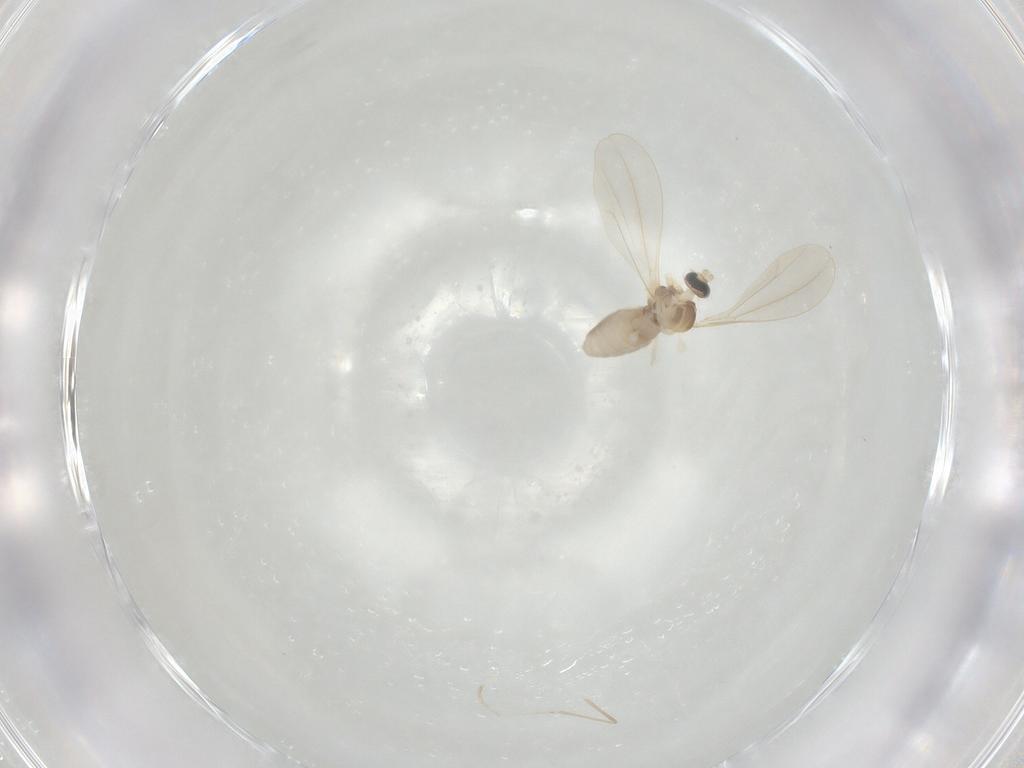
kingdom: Animalia
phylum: Arthropoda
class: Insecta
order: Diptera
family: Cecidomyiidae
